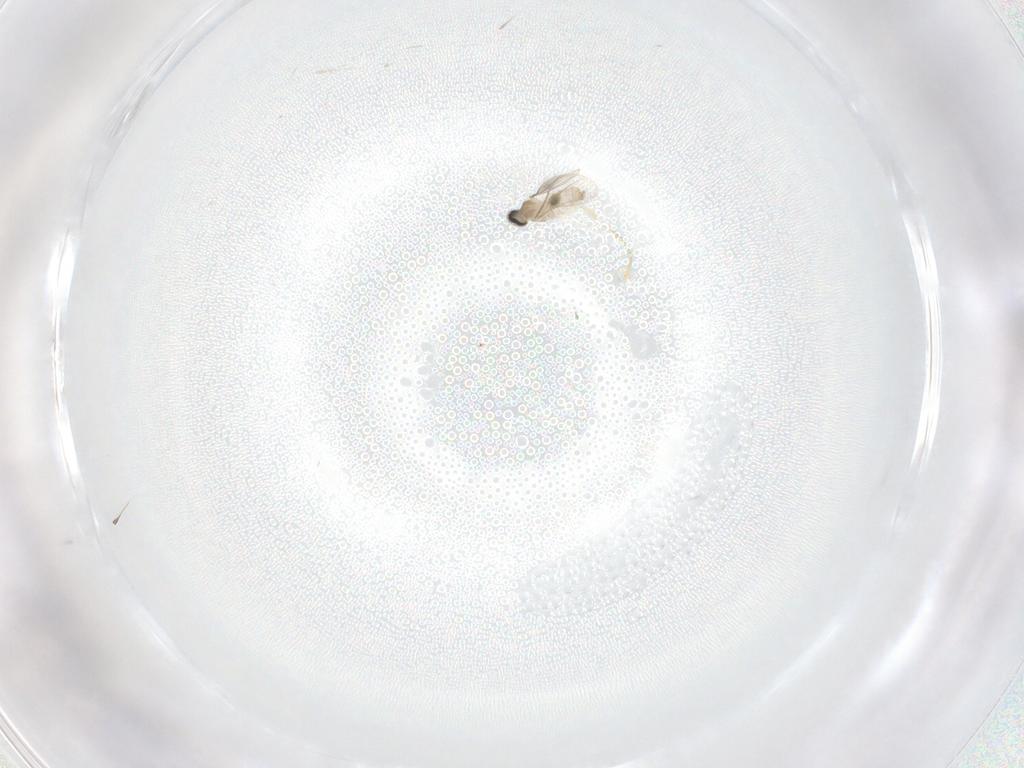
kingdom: Animalia
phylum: Arthropoda
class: Insecta
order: Diptera
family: Cecidomyiidae
